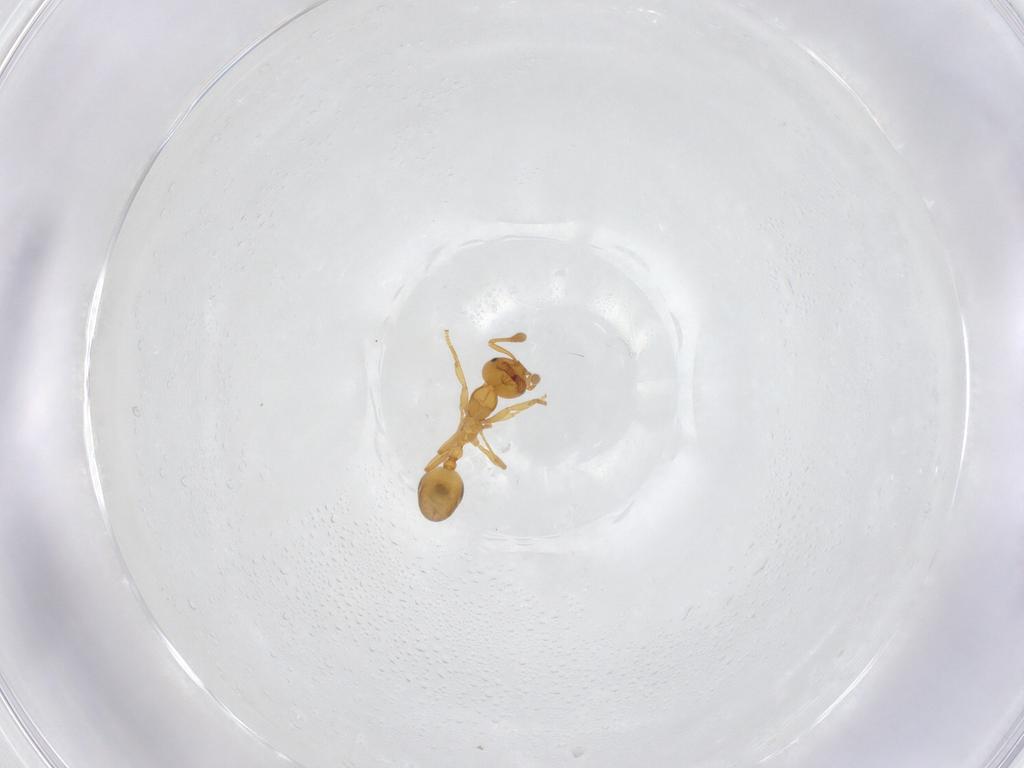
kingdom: Animalia
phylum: Arthropoda
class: Insecta
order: Hymenoptera
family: Formicidae
